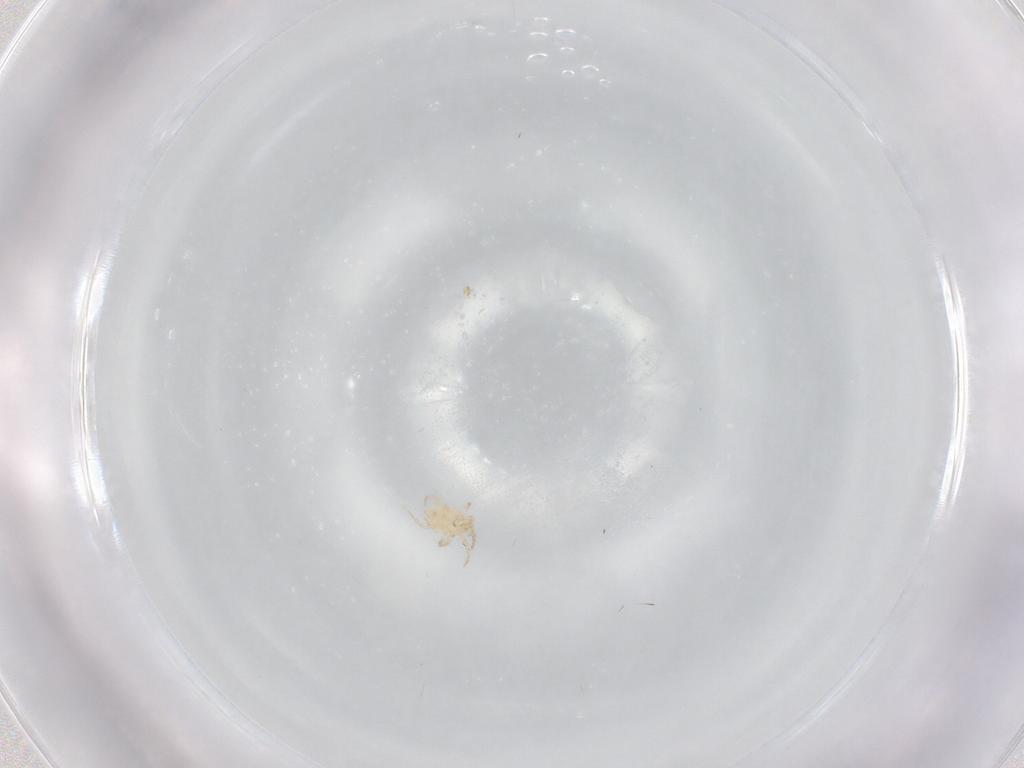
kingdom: Animalia
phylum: Arthropoda
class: Arachnida
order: Mesostigmata
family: Phytoseiidae
